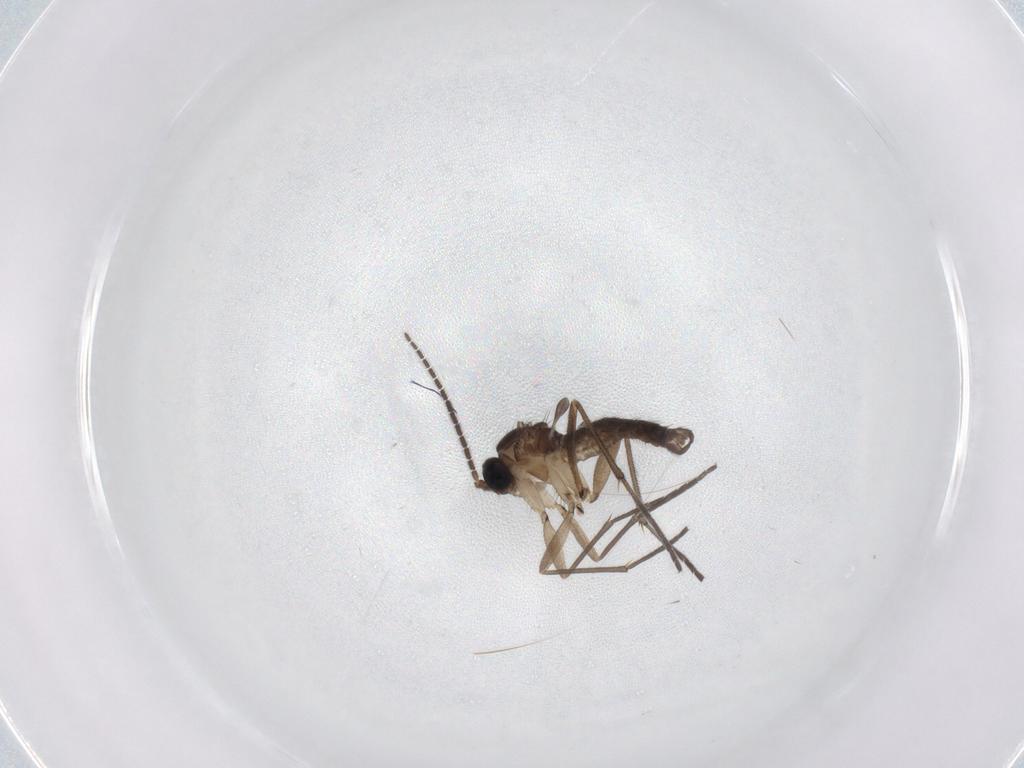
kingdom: Animalia
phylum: Arthropoda
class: Insecta
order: Diptera
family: Sciaridae
